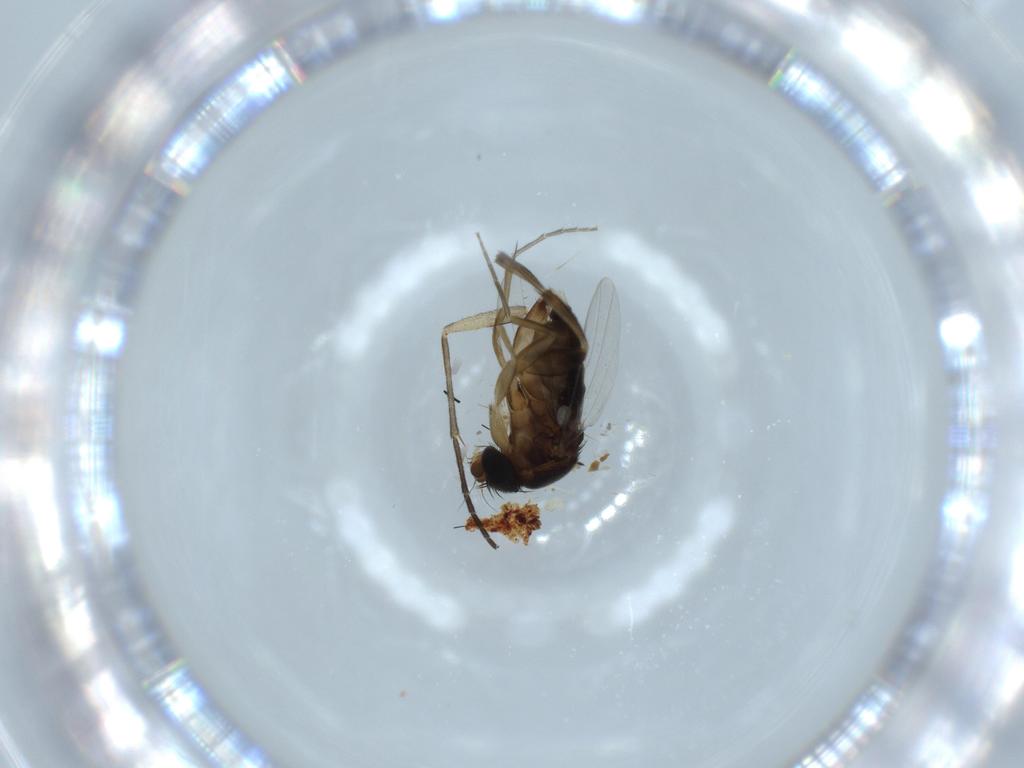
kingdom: Animalia
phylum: Arthropoda
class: Insecta
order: Diptera
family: Phoridae
